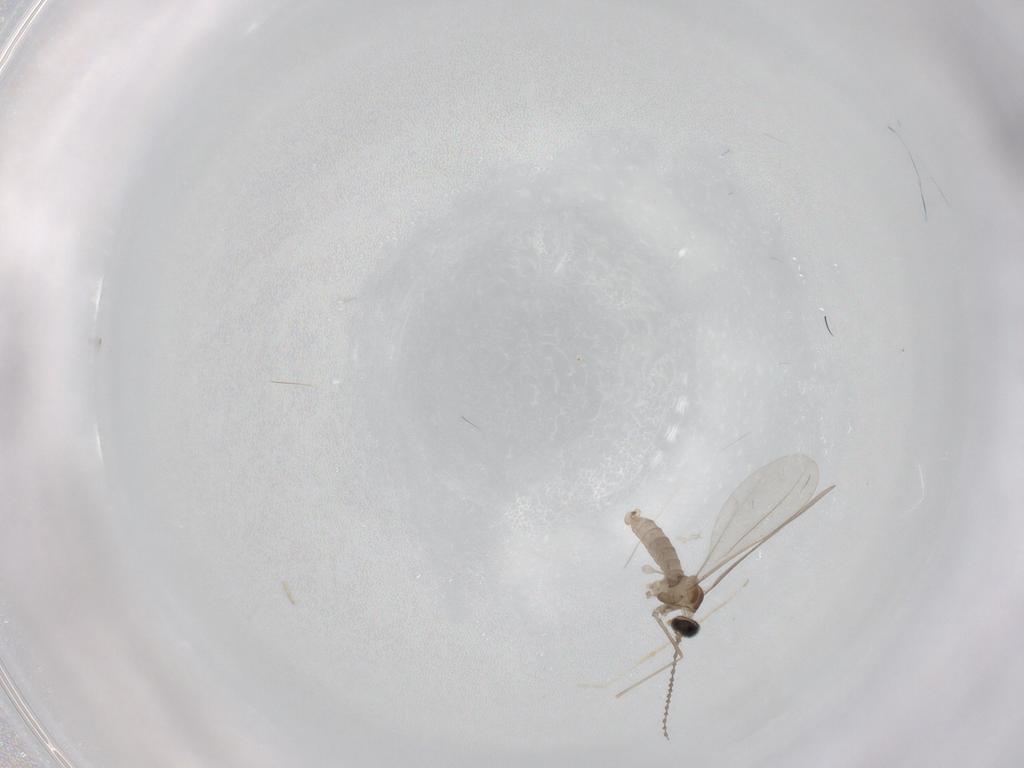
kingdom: Animalia
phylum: Arthropoda
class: Insecta
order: Diptera
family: Cecidomyiidae
